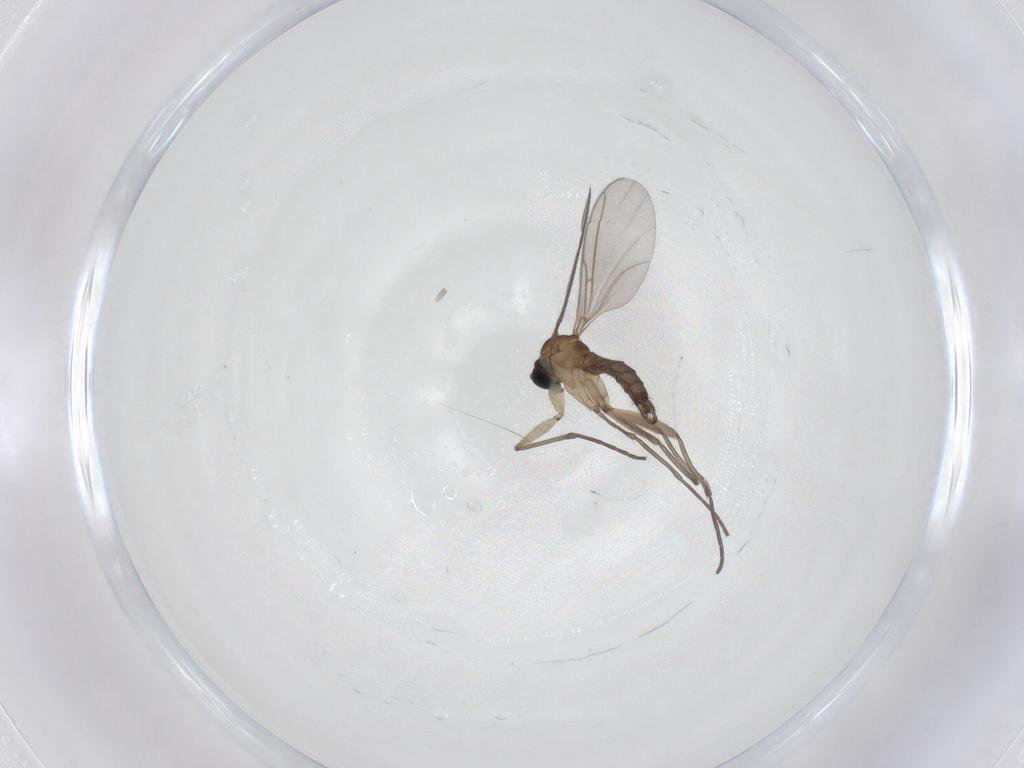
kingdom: Animalia
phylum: Arthropoda
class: Insecta
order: Diptera
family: Sciaridae
